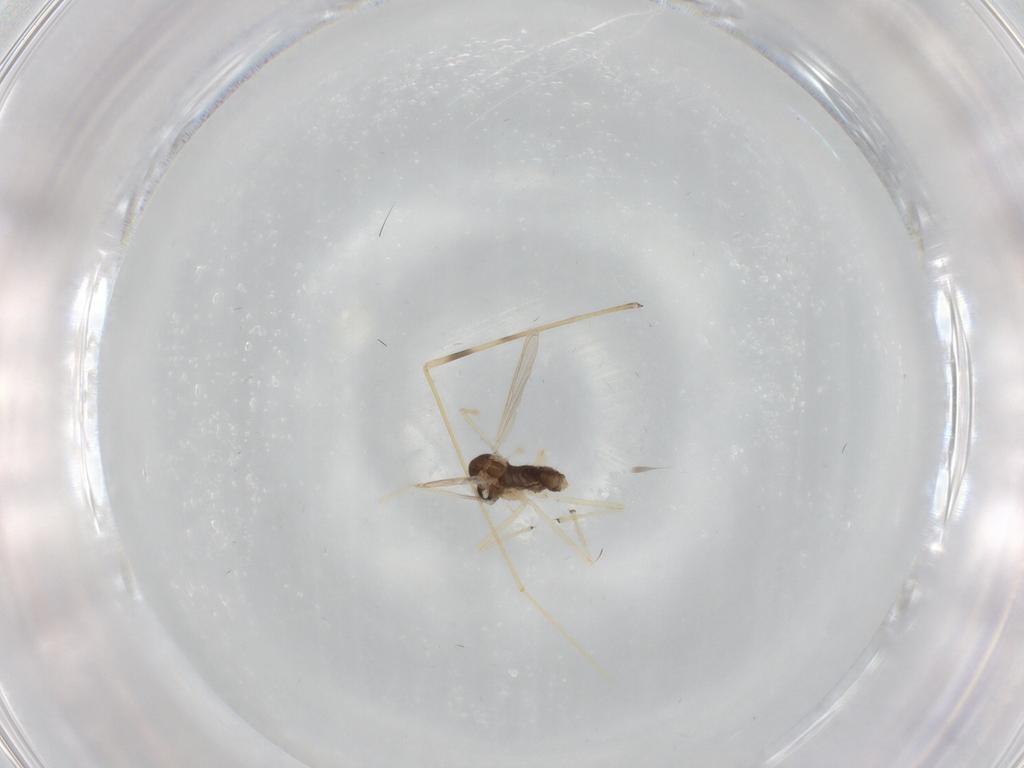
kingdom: Animalia
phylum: Arthropoda
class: Insecta
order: Diptera
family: Chironomidae
